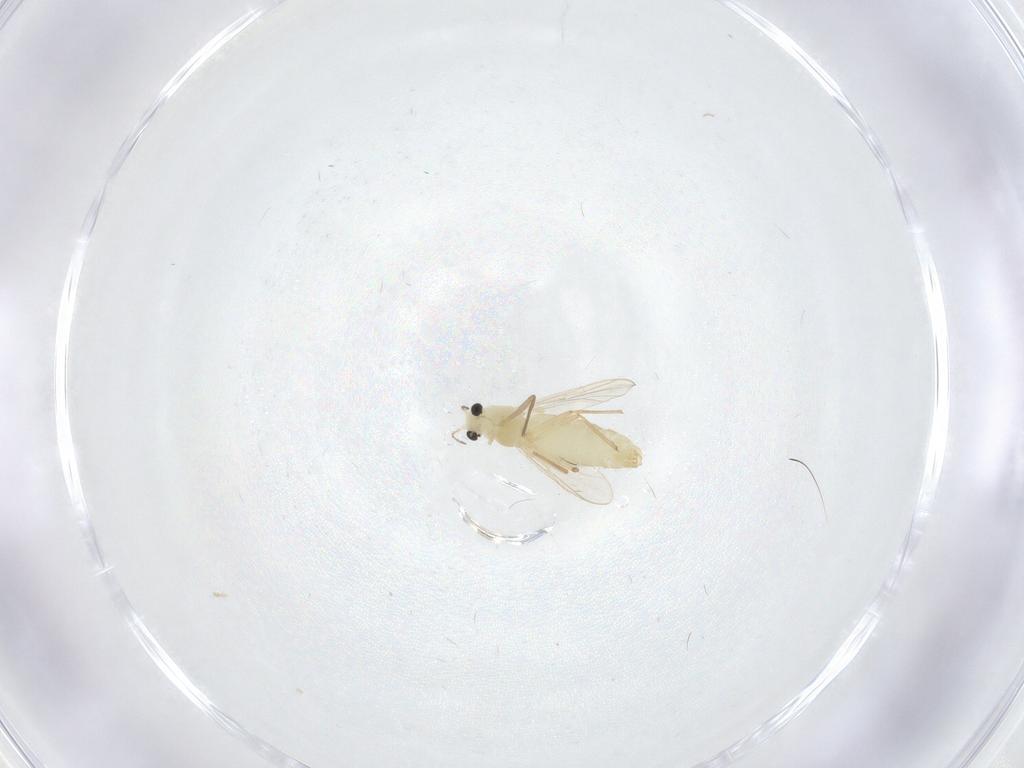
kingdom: Animalia
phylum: Arthropoda
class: Insecta
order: Diptera
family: Chironomidae
